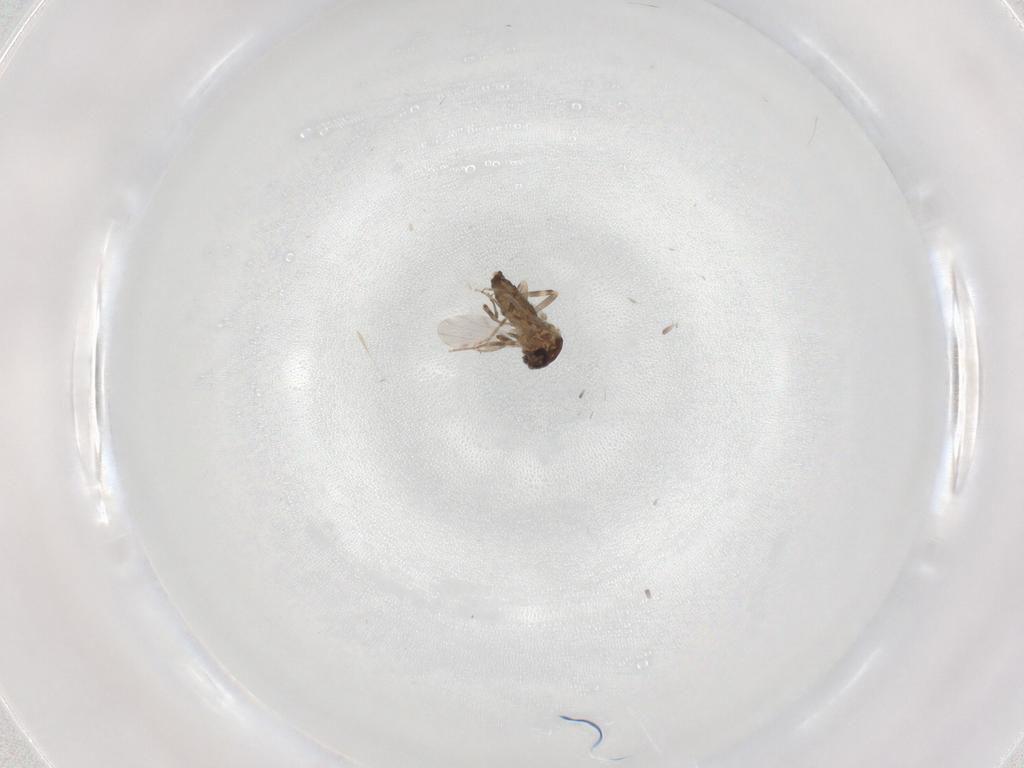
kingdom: Animalia
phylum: Arthropoda
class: Insecta
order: Diptera
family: Ceratopogonidae
